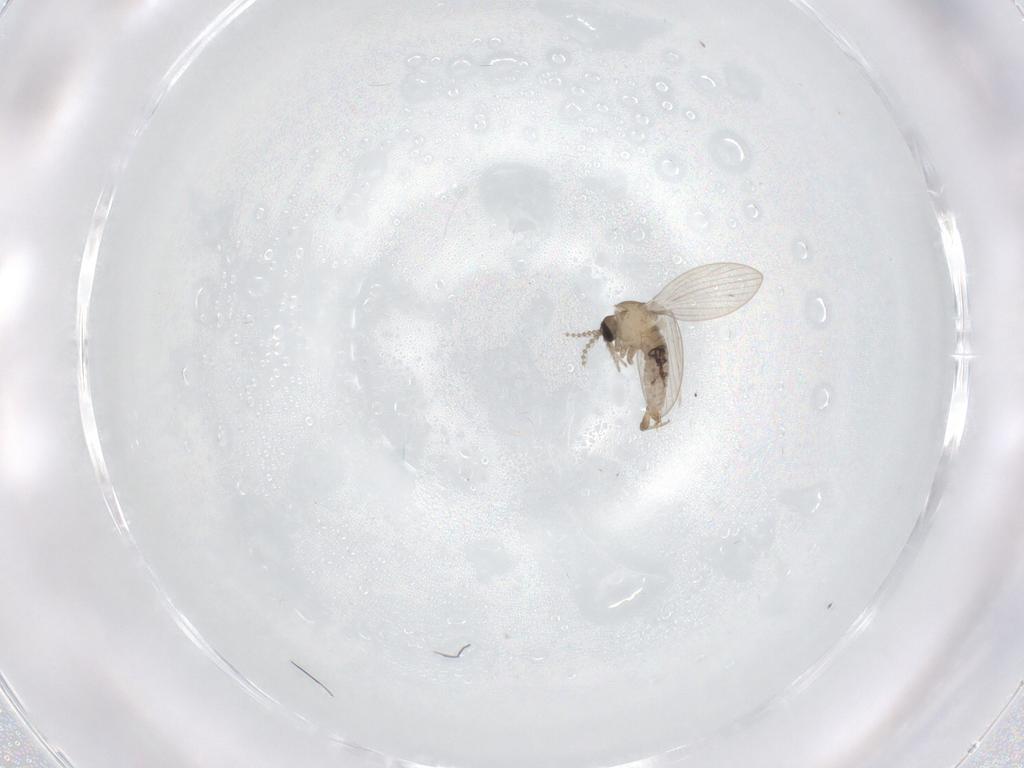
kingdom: Animalia
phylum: Arthropoda
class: Insecta
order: Diptera
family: Psychodidae
